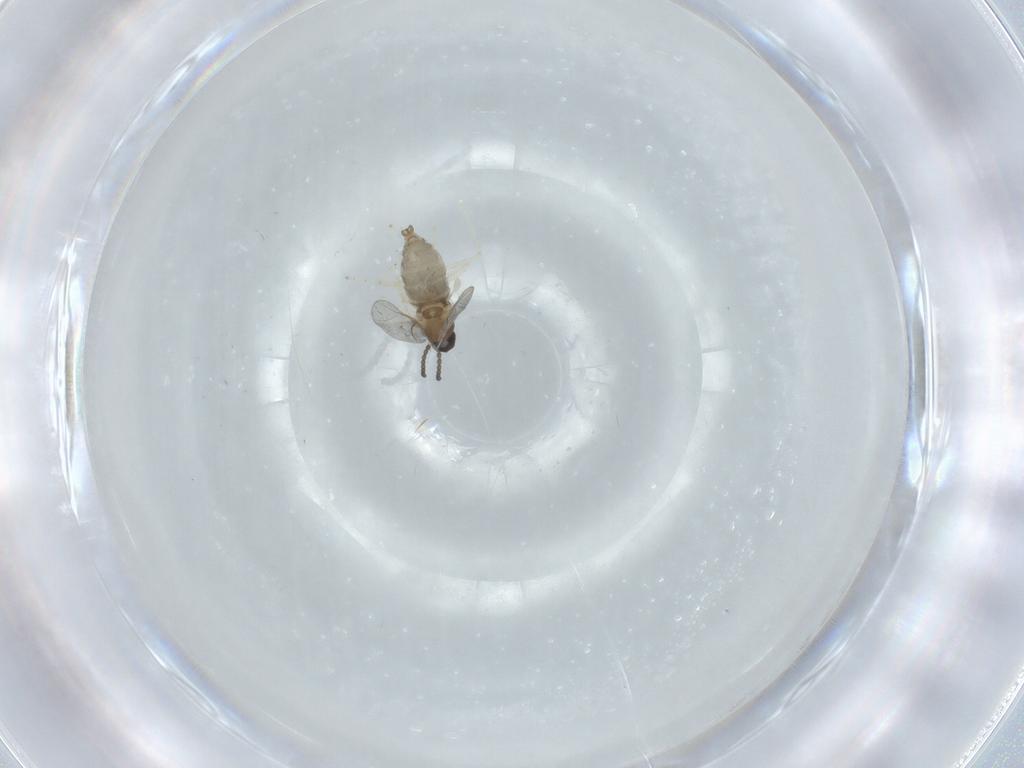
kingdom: Animalia
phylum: Arthropoda
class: Insecta
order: Diptera
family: Cecidomyiidae
